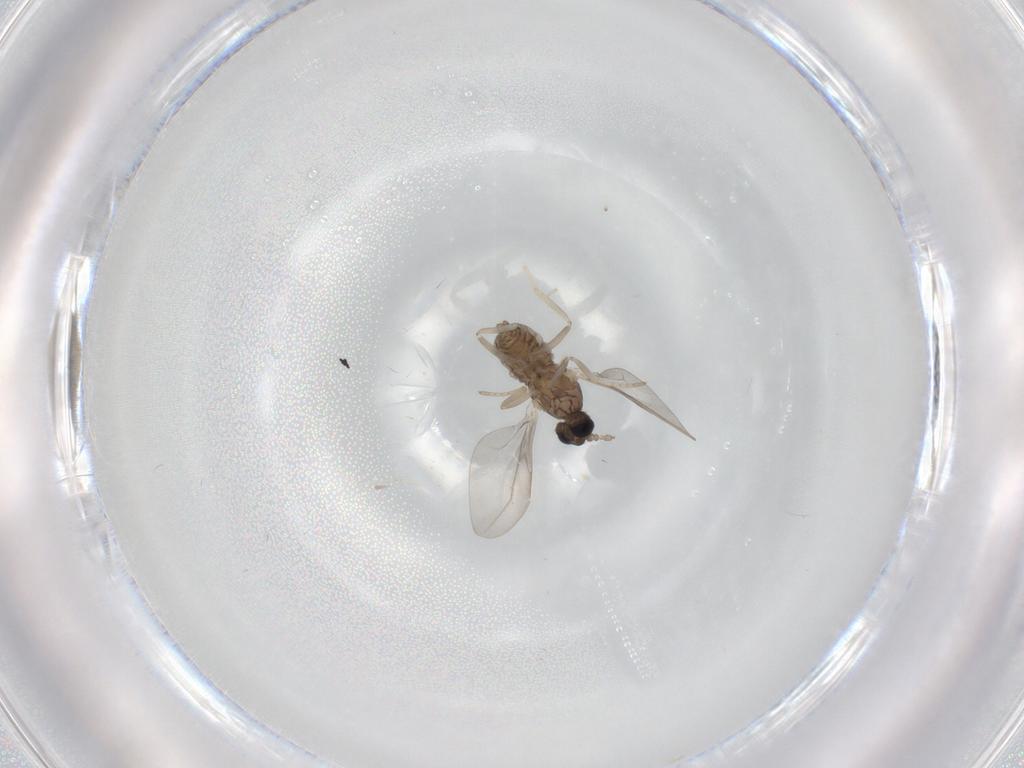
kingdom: Animalia
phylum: Arthropoda
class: Insecta
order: Diptera
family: Cecidomyiidae
